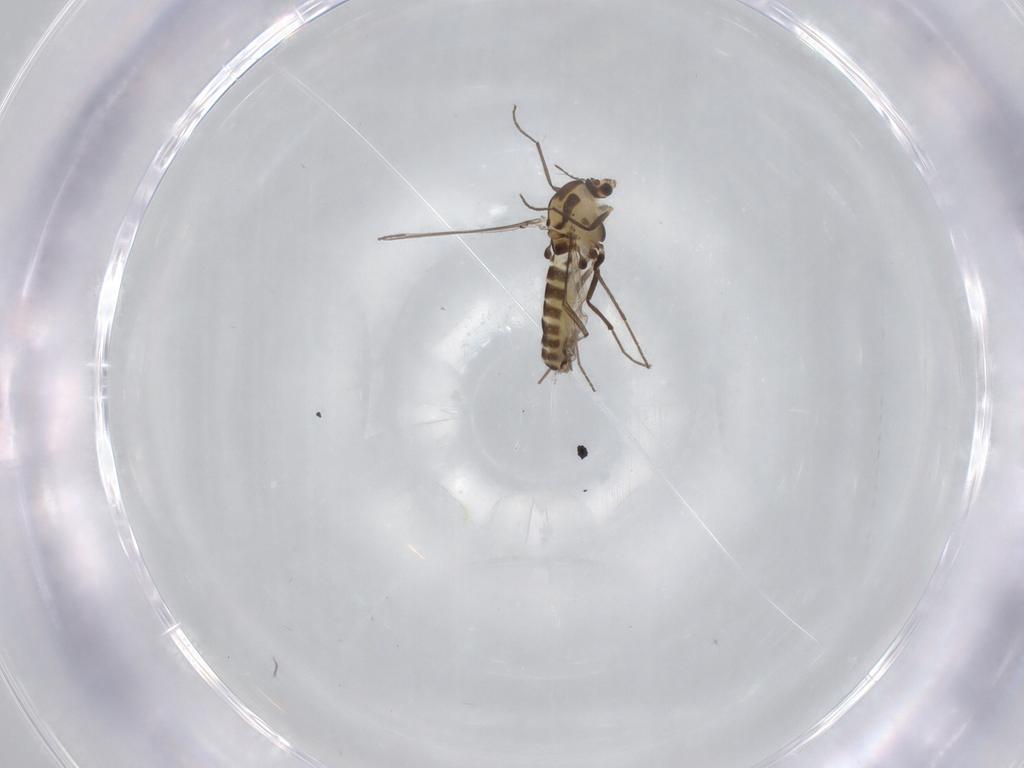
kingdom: Animalia
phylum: Arthropoda
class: Insecta
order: Diptera
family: Chironomidae
